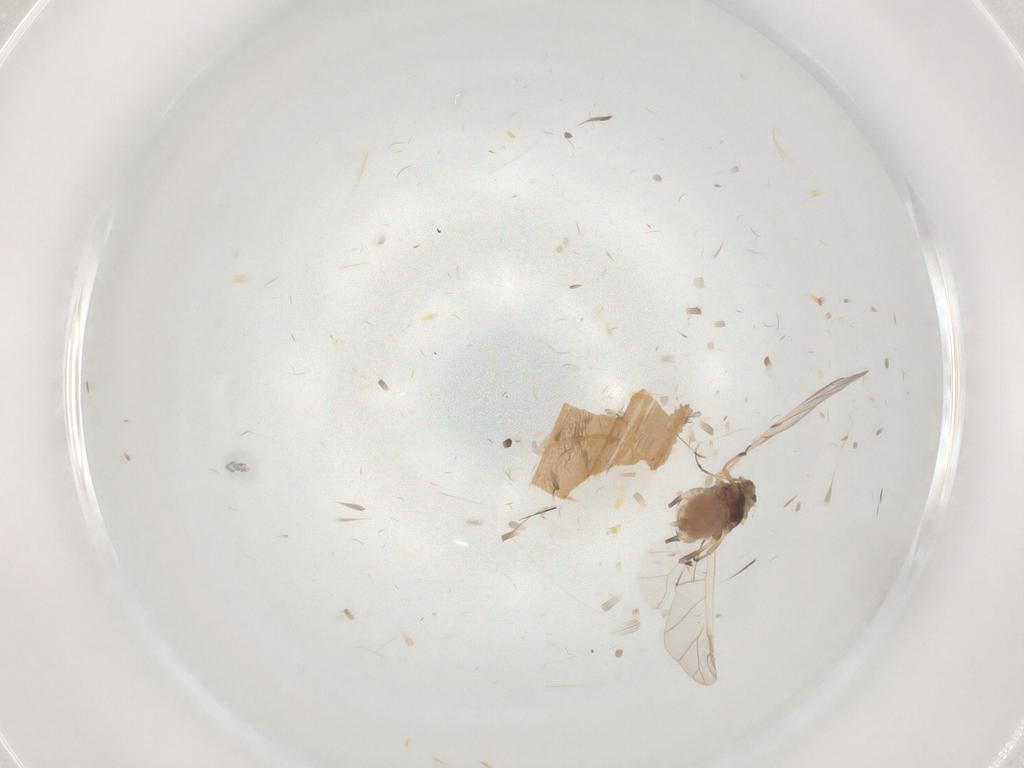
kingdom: Animalia
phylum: Arthropoda
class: Insecta
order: Hemiptera
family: Aphididae
